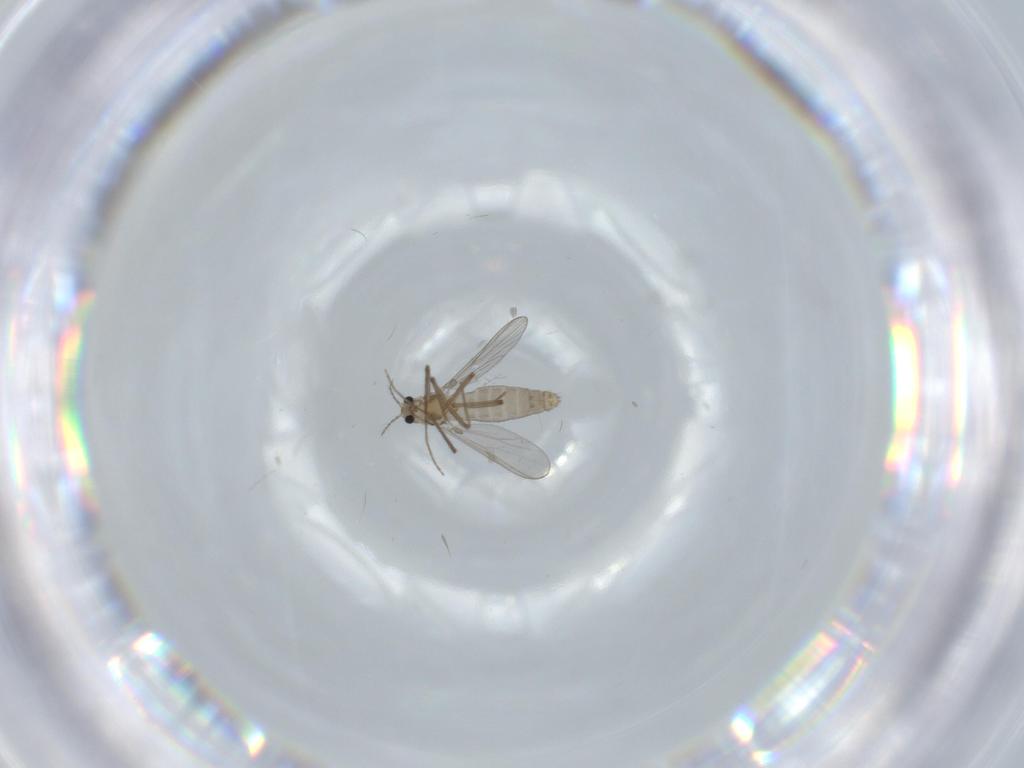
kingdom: Animalia
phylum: Arthropoda
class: Insecta
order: Diptera
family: Chironomidae
